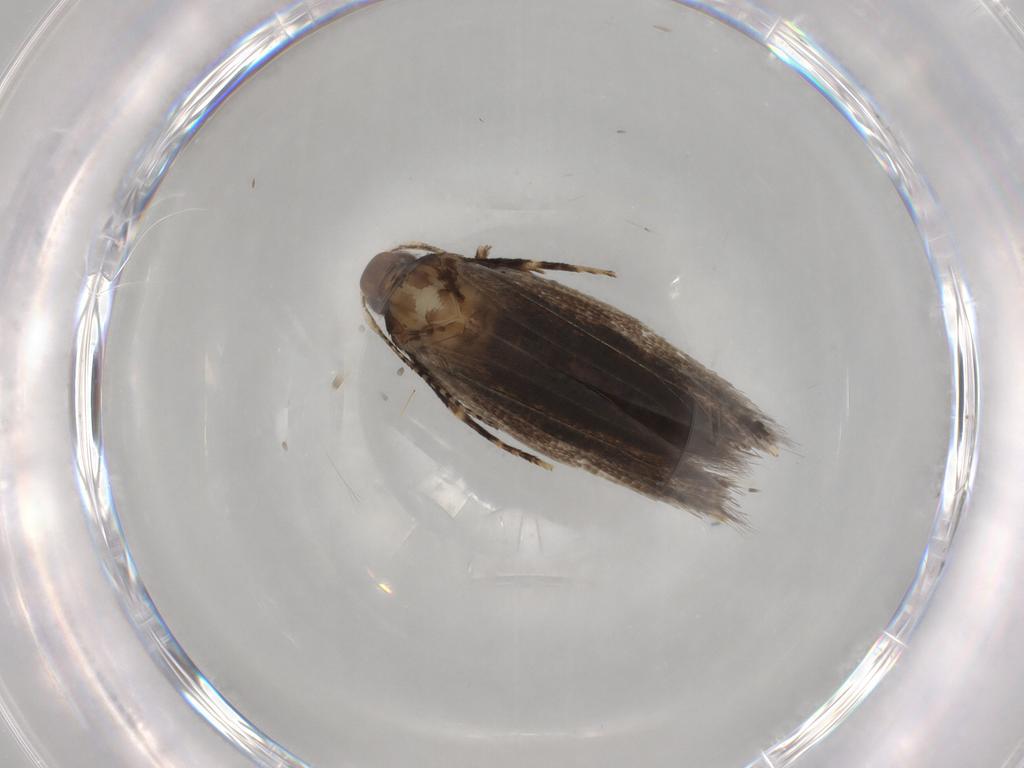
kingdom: Animalia
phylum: Arthropoda
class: Insecta
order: Lepidoptera
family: Cosmopterigidae
